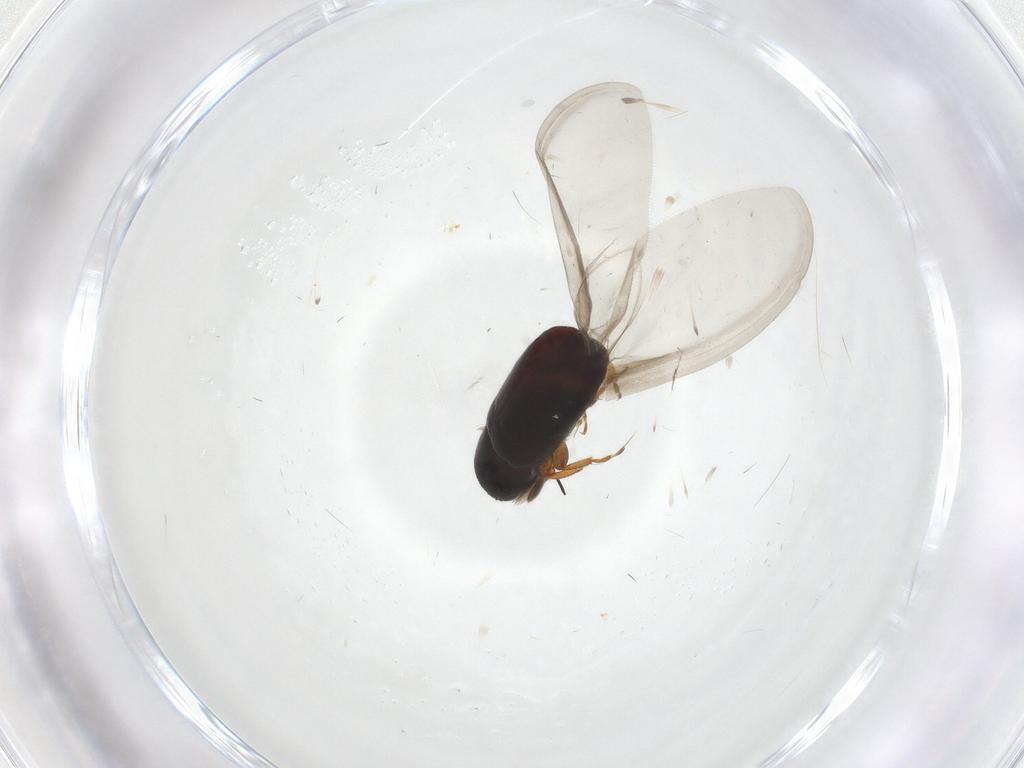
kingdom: Animalia
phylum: Arthropoda
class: Insecta
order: Coleoptera
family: Curculionidae
